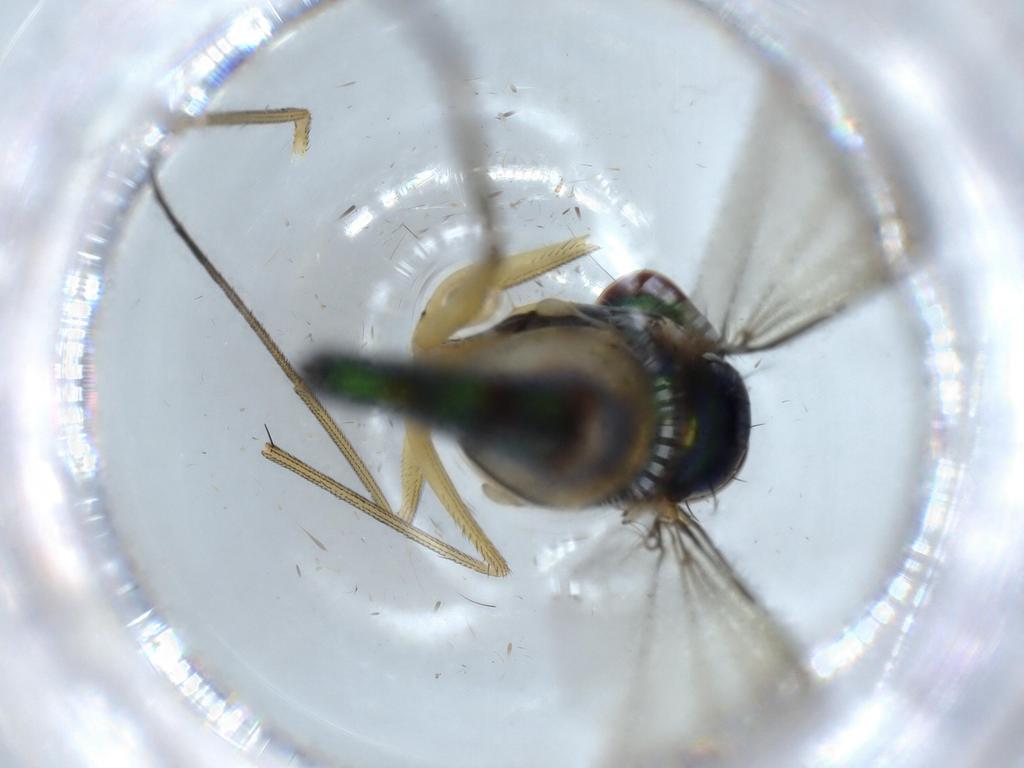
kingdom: Animalia
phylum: Arthropoda
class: Insecta
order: Diptera
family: Dolichopodidae
